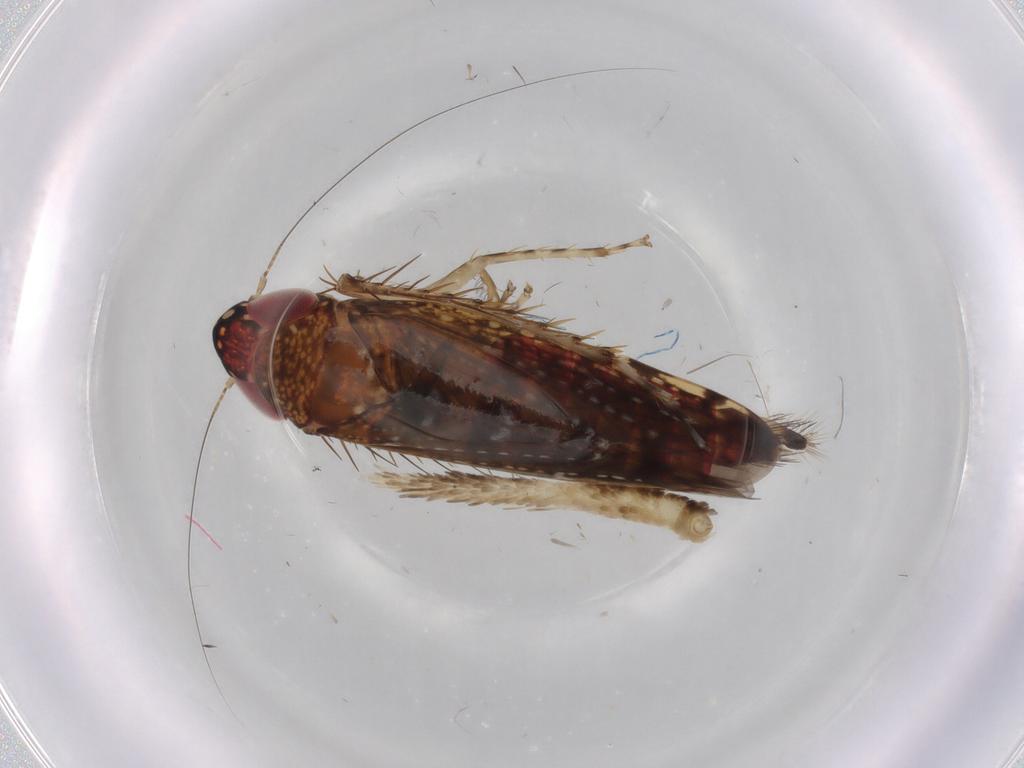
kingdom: Animalia
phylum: Arthropoda
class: Insecta
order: Hemiptera
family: Cicadellidae
